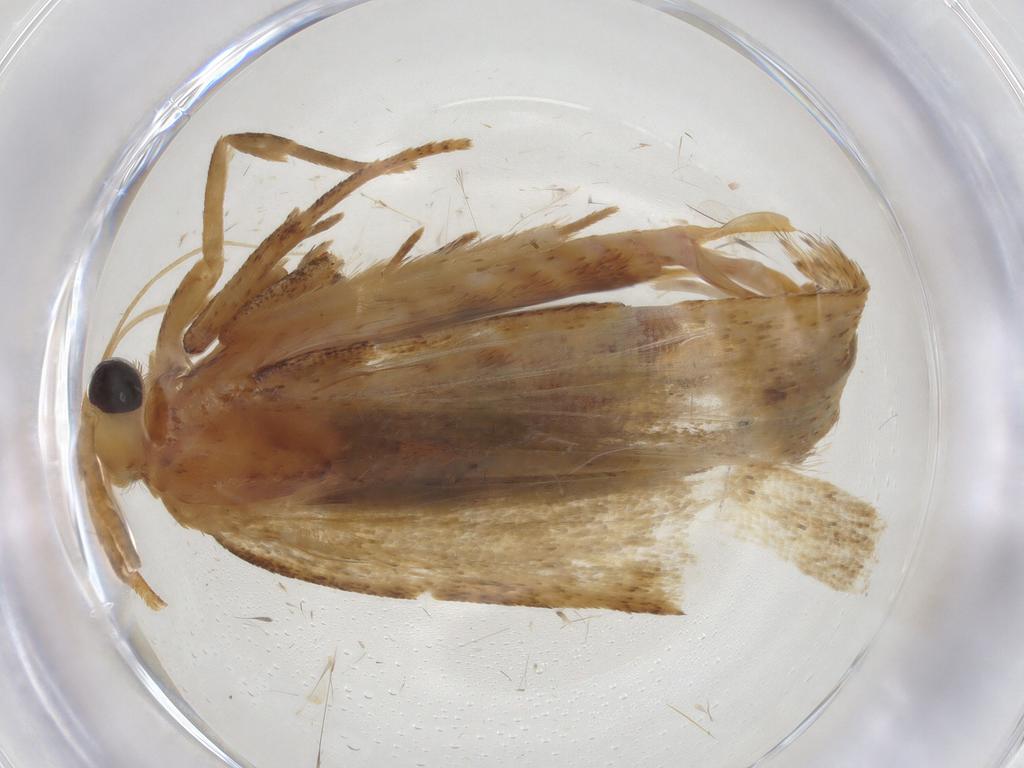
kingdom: Animalia
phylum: Arthropoda
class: Insecta
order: Lepidoptera
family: Autostichidae
